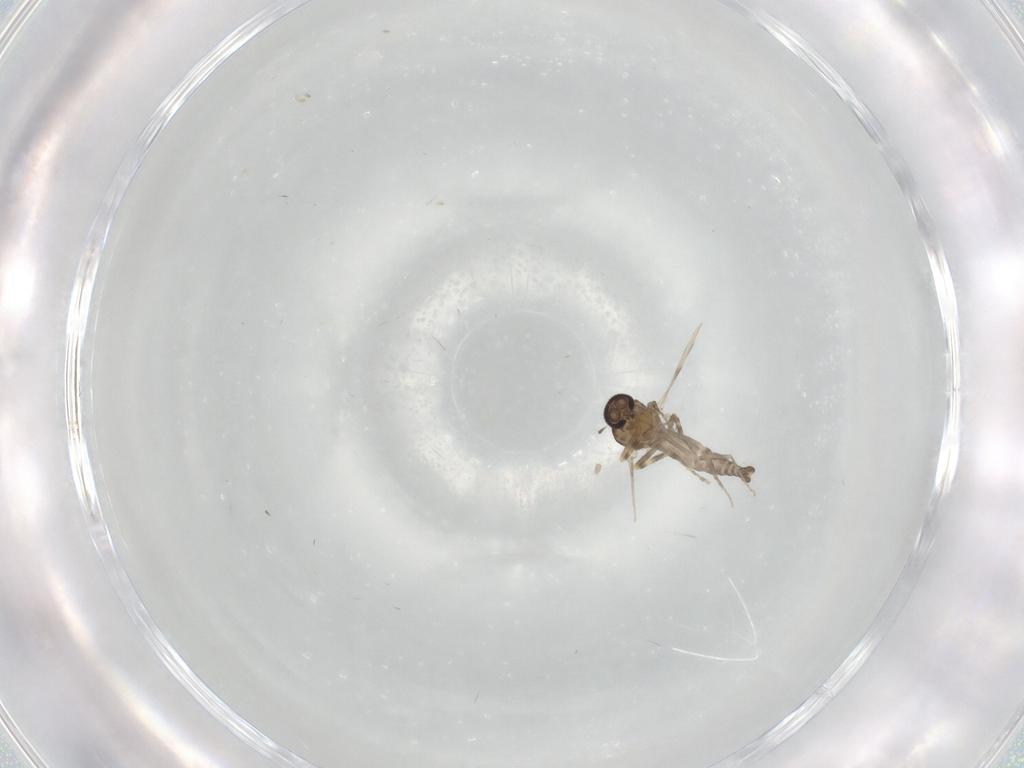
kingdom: Animalia
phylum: Arthropoda
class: Insecta
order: Diptera
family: Ceratopogonidae
